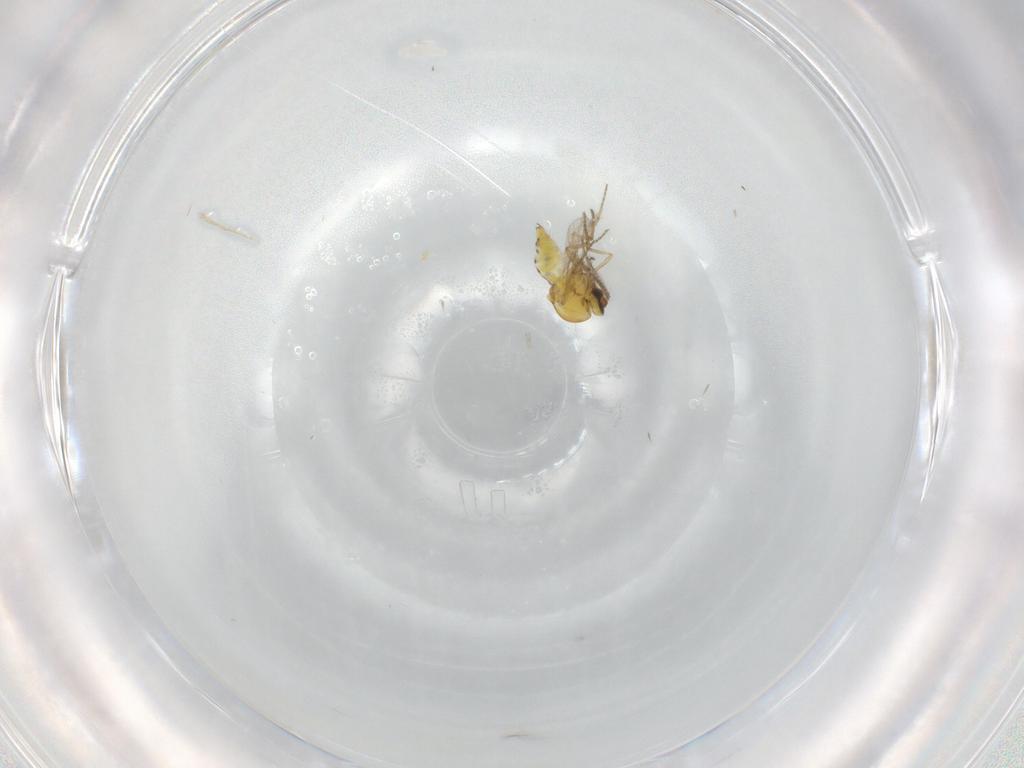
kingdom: Animalia
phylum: Arthropoda
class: Insecta
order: Diptera
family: Ceratopogonidae
